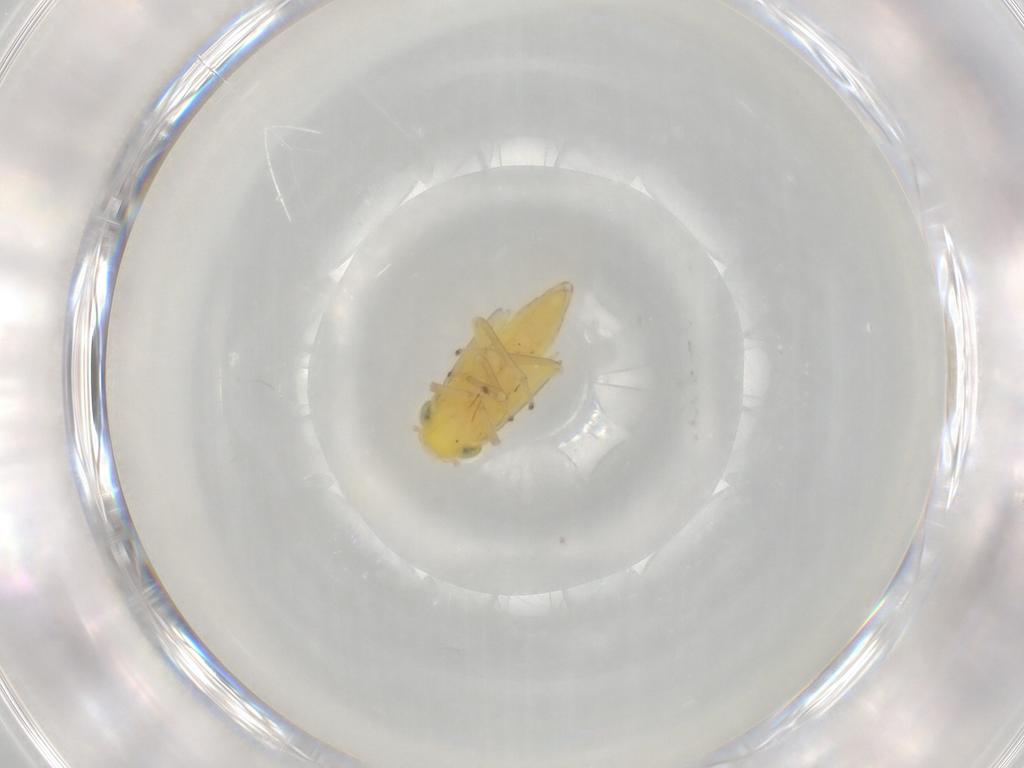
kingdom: Animalia
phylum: Arthropoda
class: Insecta
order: Hemiptera
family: Cicadellidae
